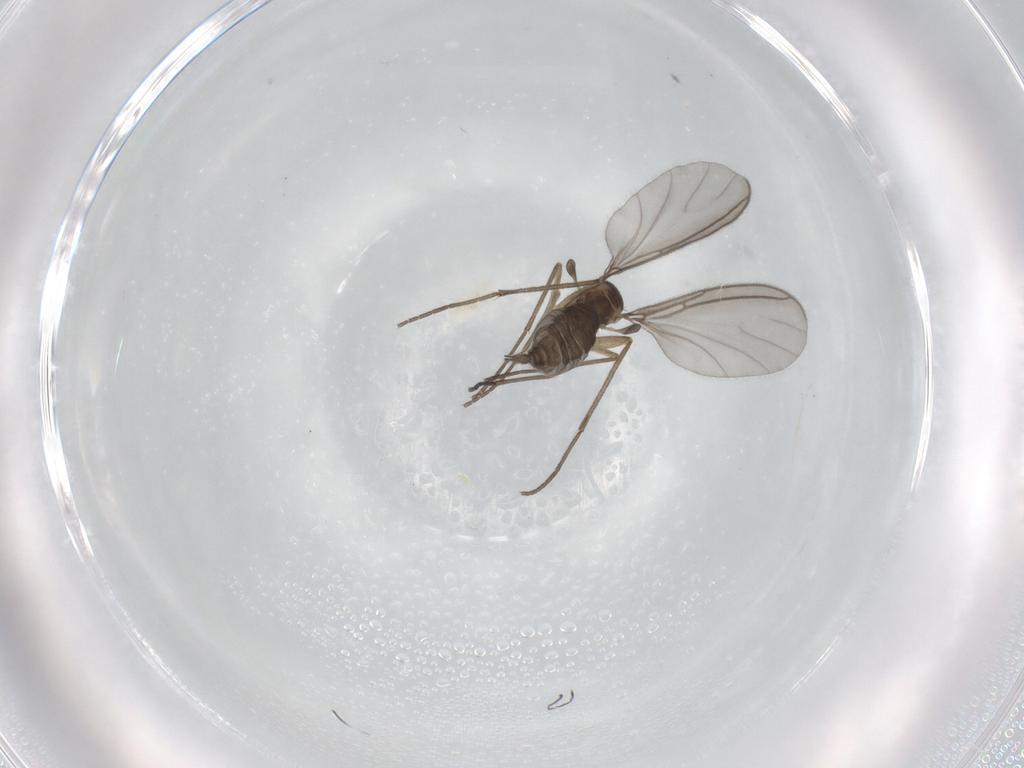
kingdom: Animalia
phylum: Arthropoda
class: Insecta
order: Diptera
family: Sciaridae
